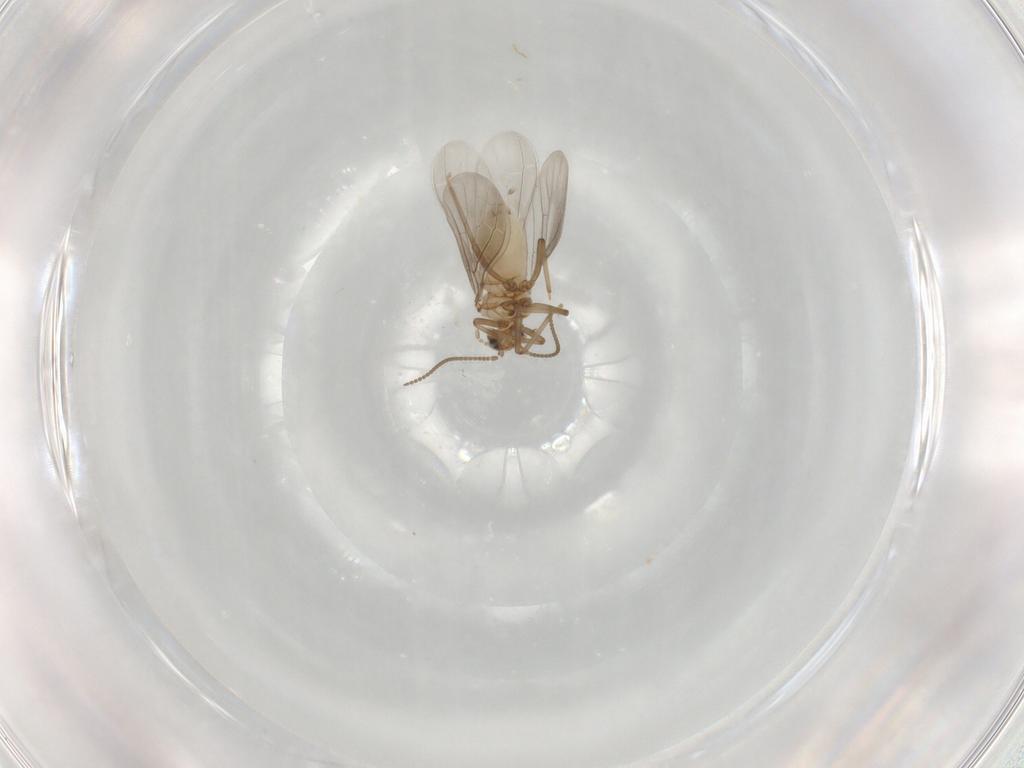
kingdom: Animalia
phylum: Arthropoda
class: Insecta
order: Neuroptera
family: Coniopterygidae
